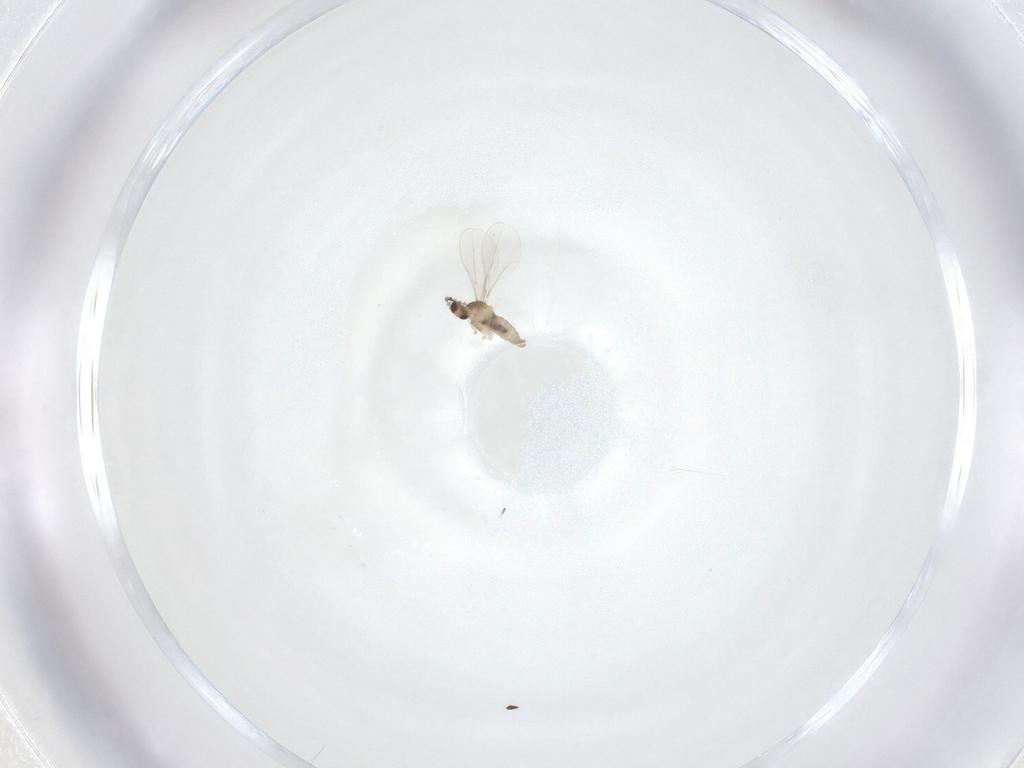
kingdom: Animalia
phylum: Arthropoda
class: Insecta
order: Diptera
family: Cecidomyiidae
